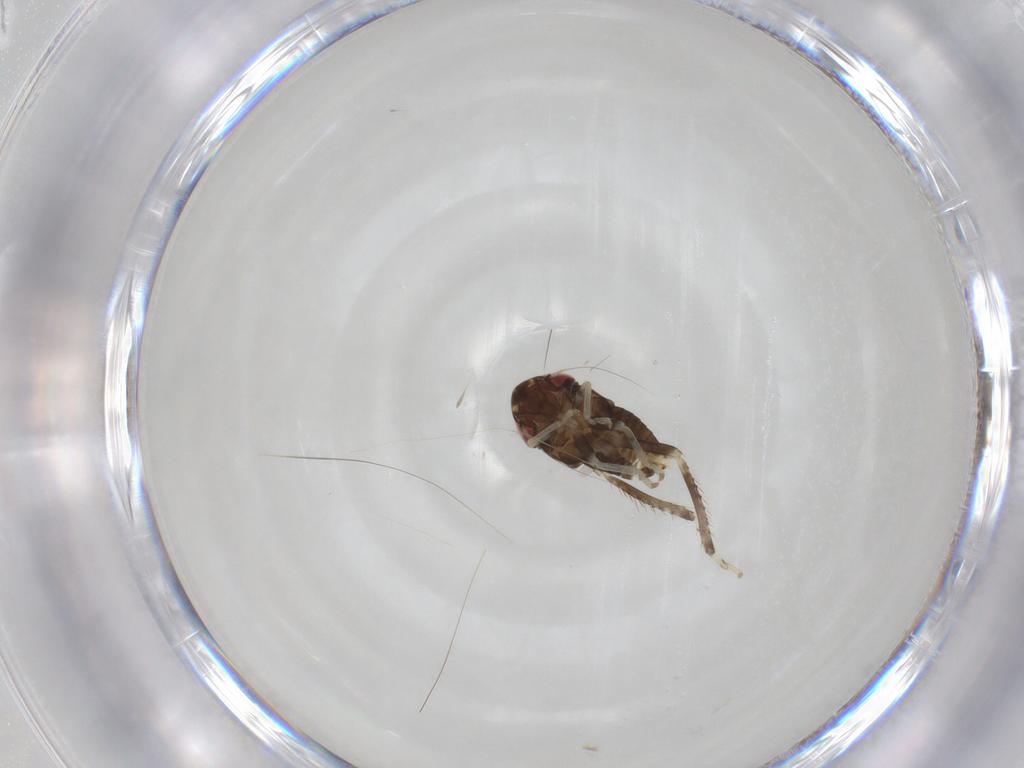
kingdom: Animalia
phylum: Arthropoda
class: Insecta
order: Hemiptera
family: Cicadellidae
